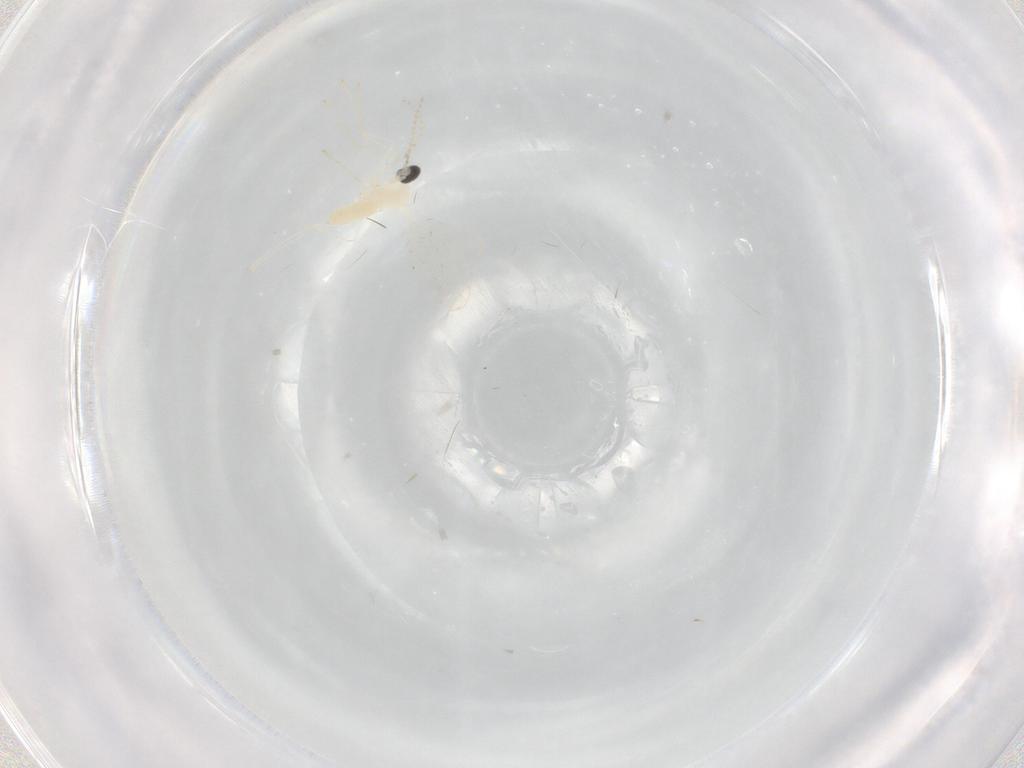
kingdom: Animalia
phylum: Arthropoda
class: Insecta
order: Diptera
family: Cecidomyiidae
